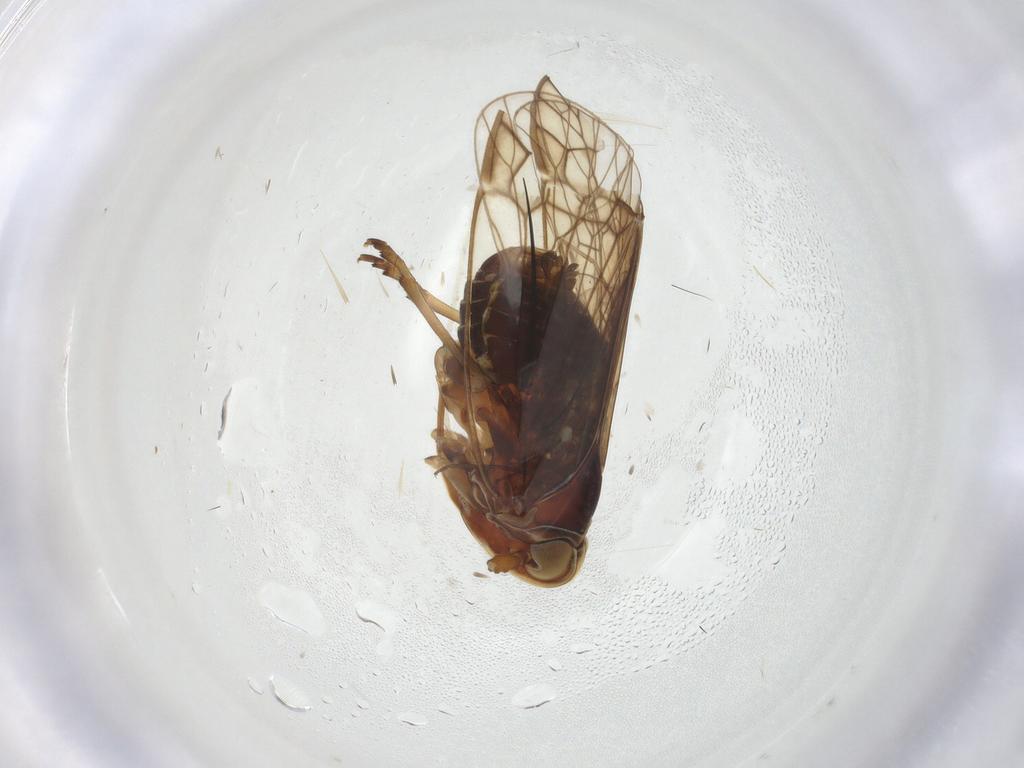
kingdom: Animalia
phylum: Arthropoda
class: Insecta
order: Hemiptera
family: Kinnaridae
